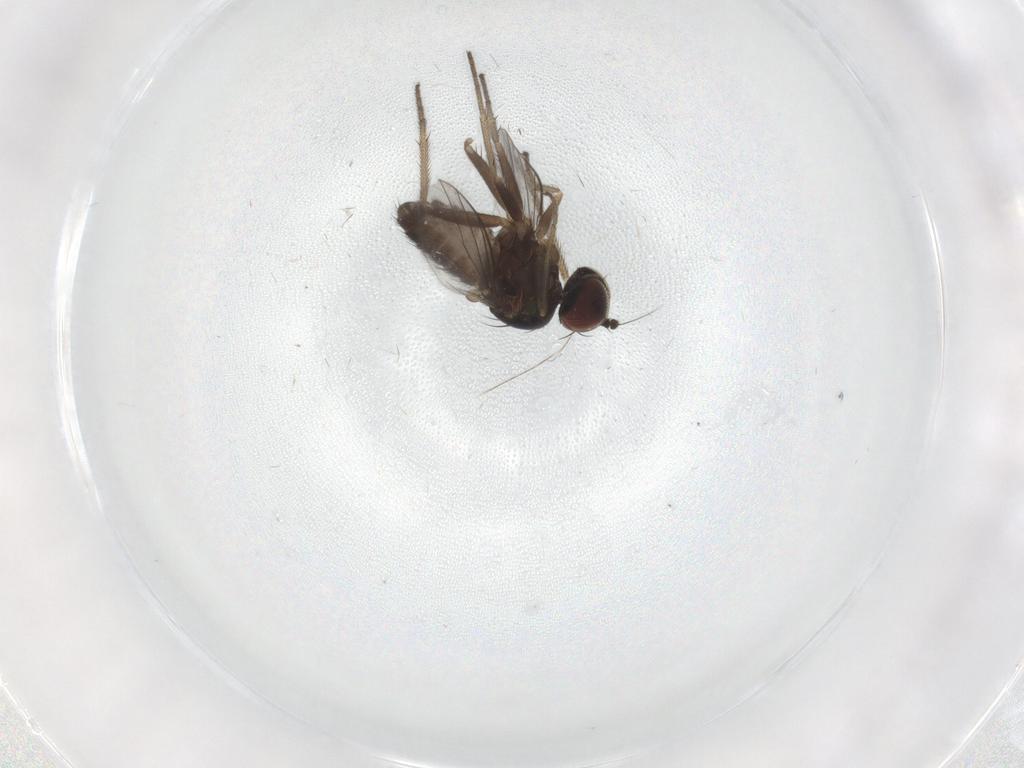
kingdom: Animalia
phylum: Arthropoda
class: Insecta
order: Diptera
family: Dolichopodidae
